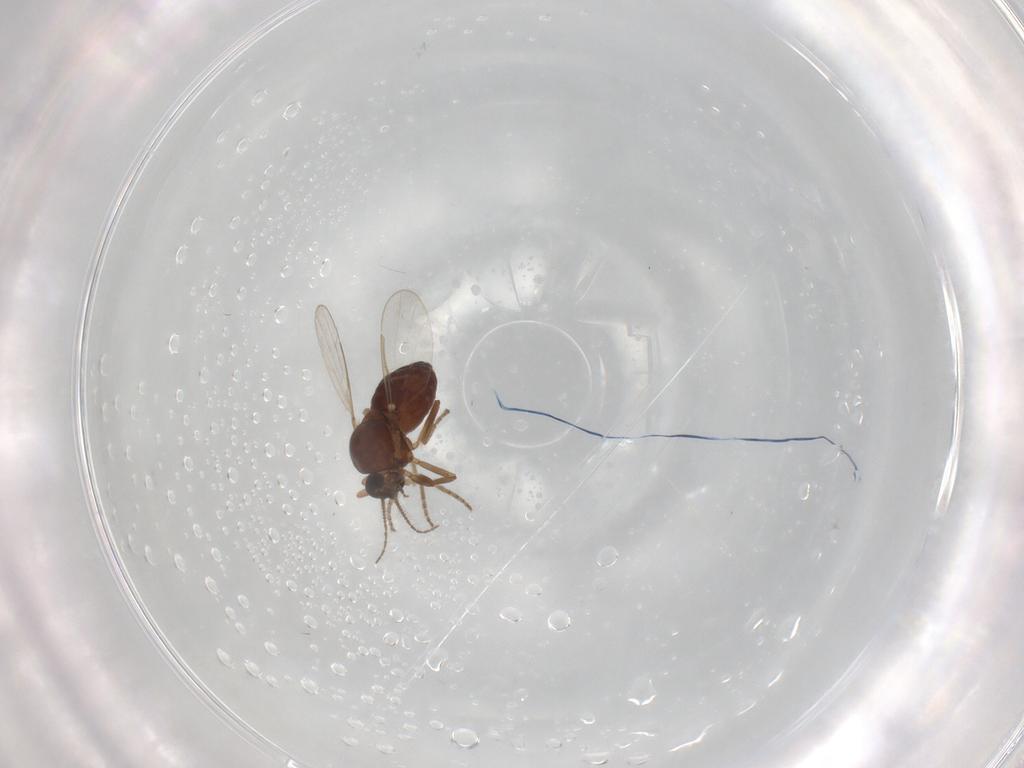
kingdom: Animalia
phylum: Arthropoda
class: Insecta
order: Diptera
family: Ceratopogonidae
